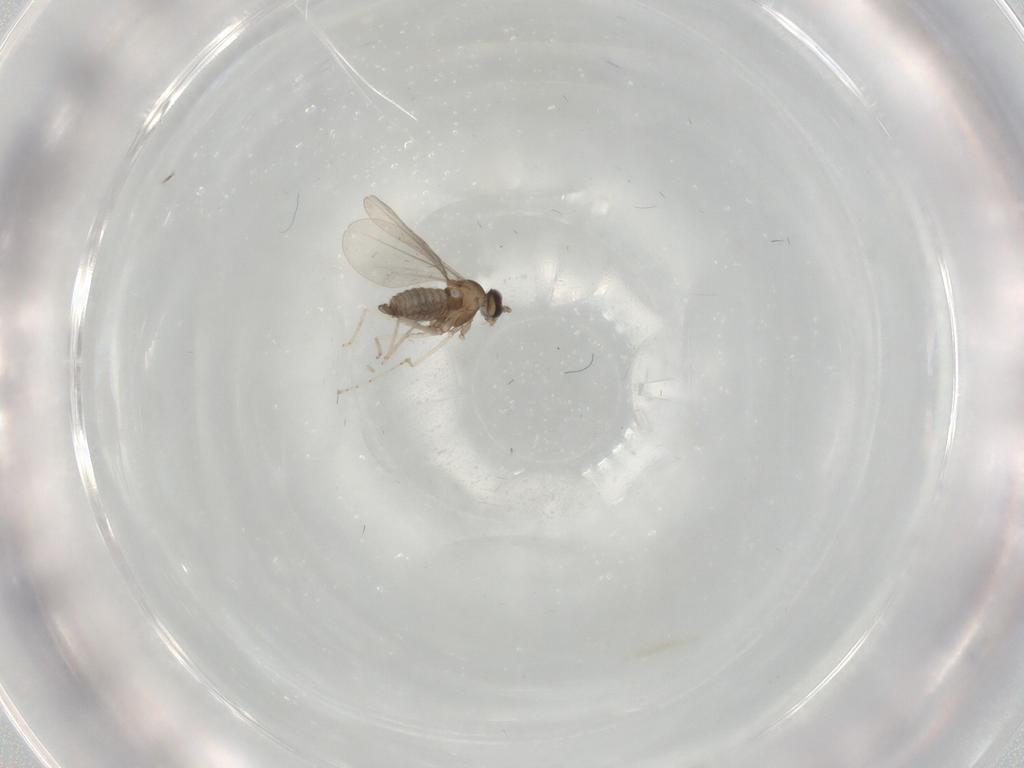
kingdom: Animalia
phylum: Arthropoda
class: Insecta
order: Diptera
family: Cecidomyiidae
